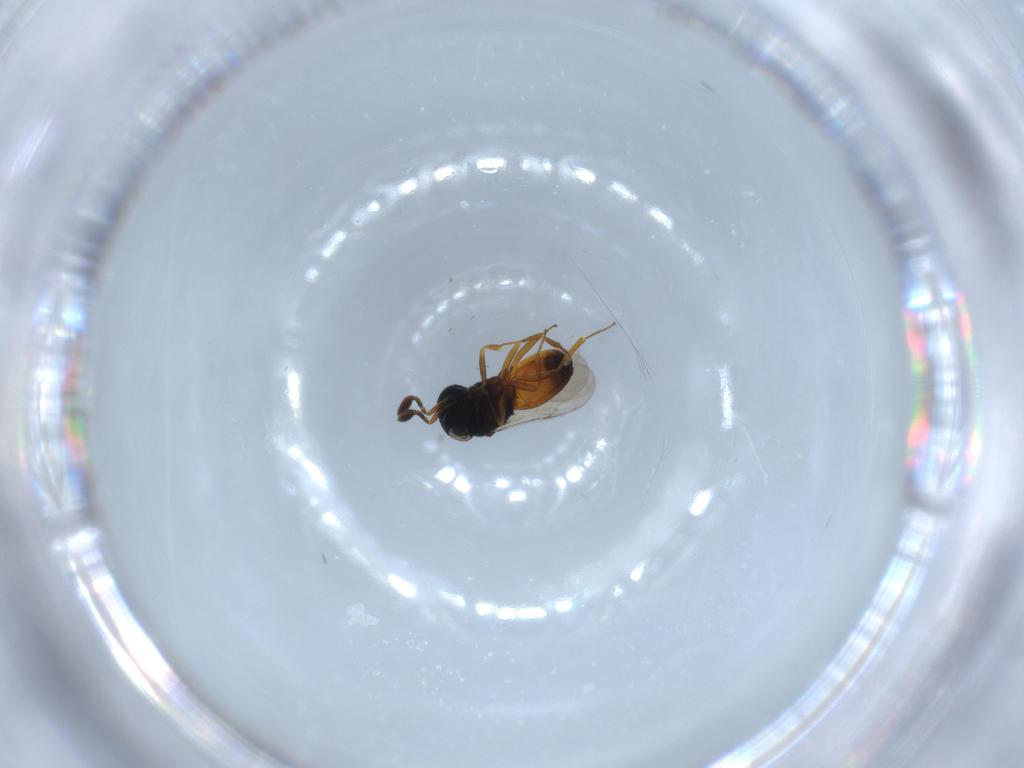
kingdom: Animalia
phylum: Arthropoda
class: Insecta
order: Hymenoptera
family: Scelionidae
